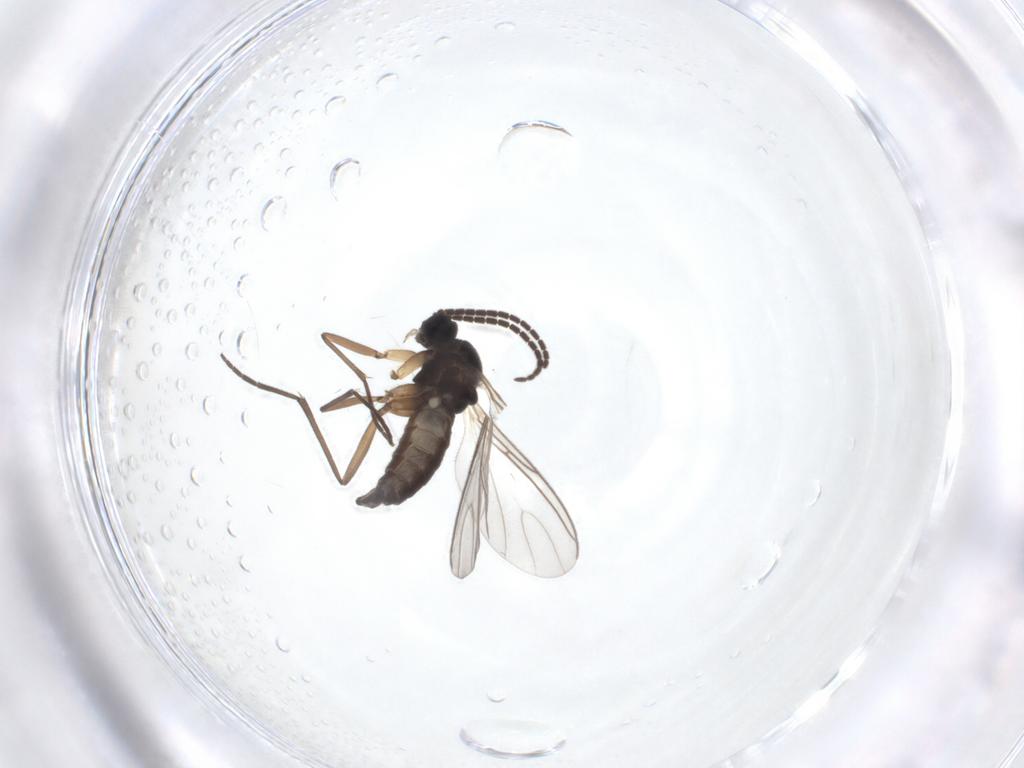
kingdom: Animalia
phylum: Arthropoda
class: Insecta
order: Diptera
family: Sciaridae
